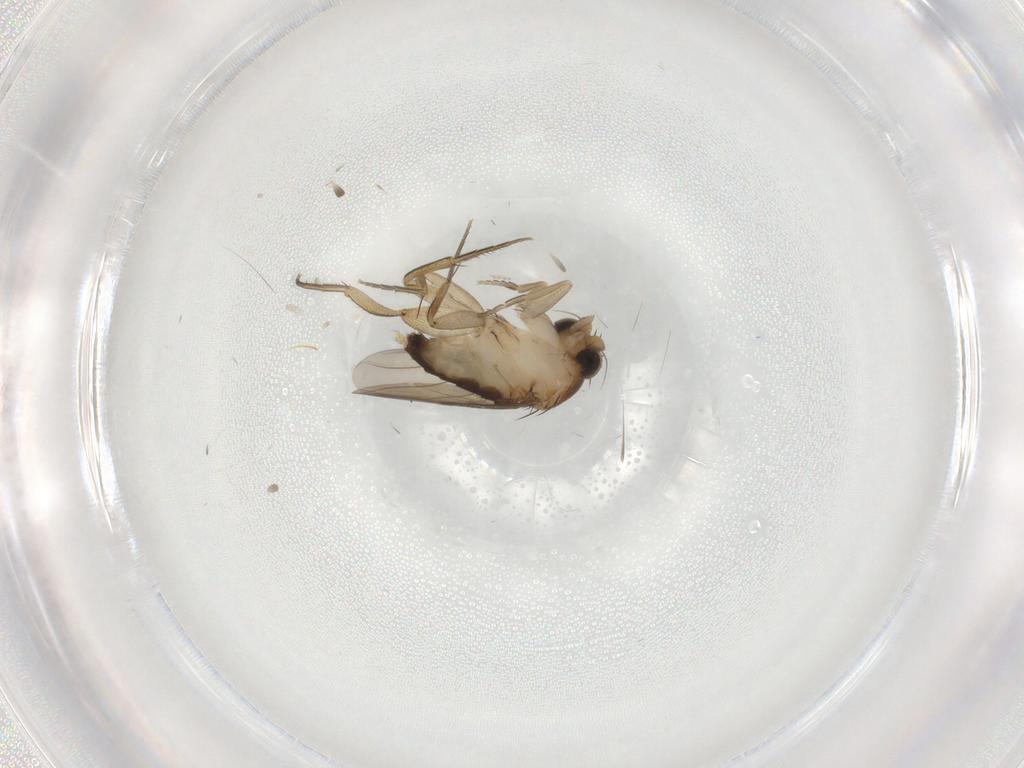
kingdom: Animalia
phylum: Arthropoda
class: Insecta
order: Diptera
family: Phoridae
